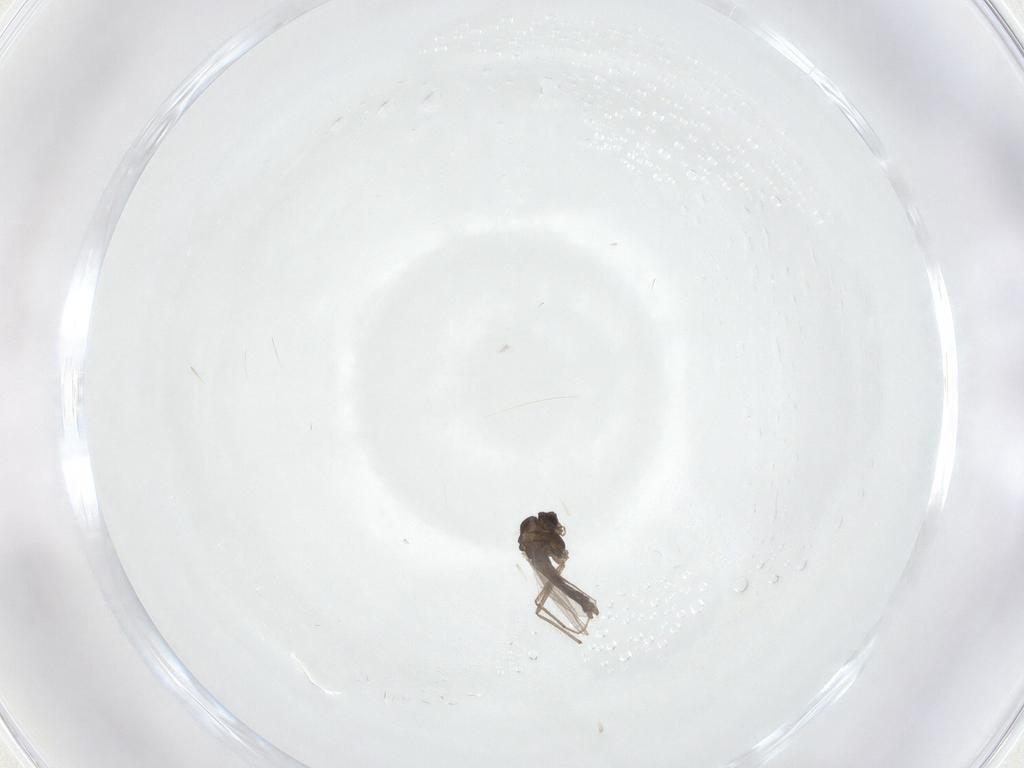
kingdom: Animalia
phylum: Arthropoda
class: Insecta
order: Diptera
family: Chironomidae
